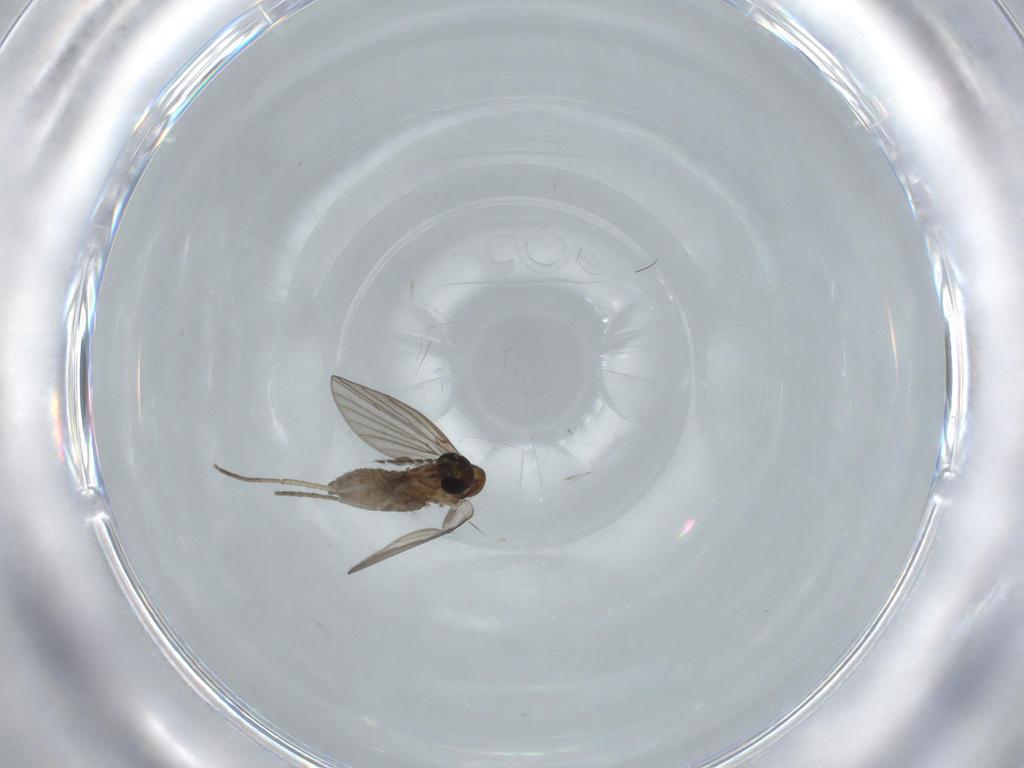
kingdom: Animalia
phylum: Arthropoda
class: Insecta
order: Diptera
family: Psychodidae
